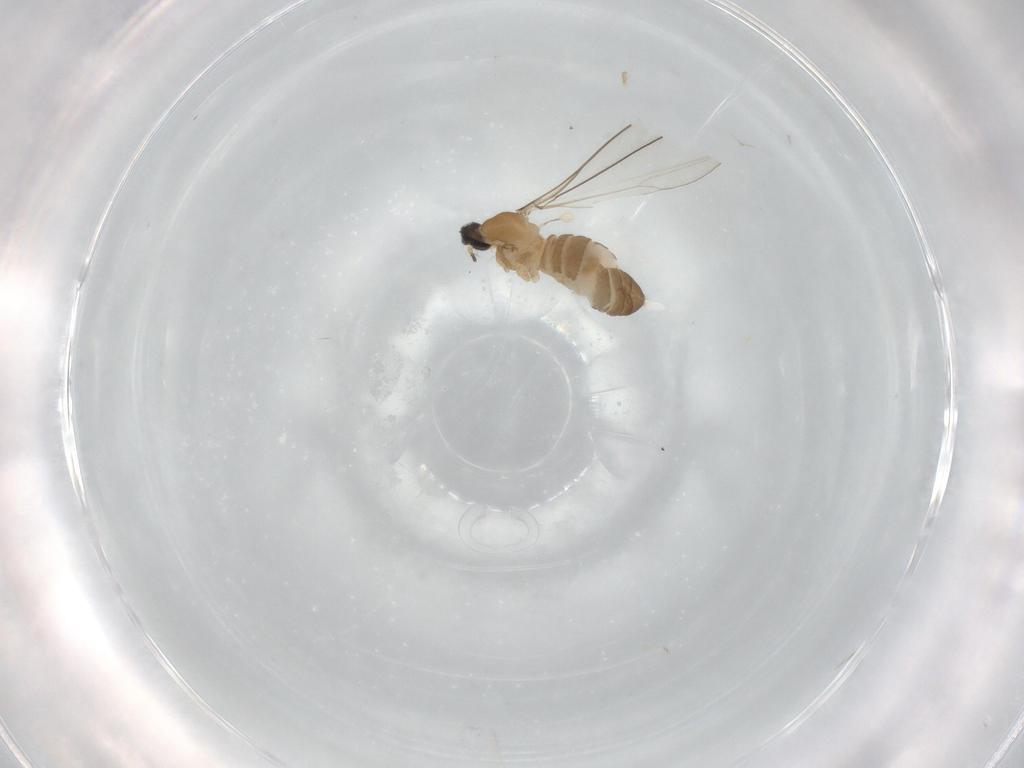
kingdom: Animalia
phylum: Arthropoda
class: Insecta
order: Diptera
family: Cecidomyiidae
